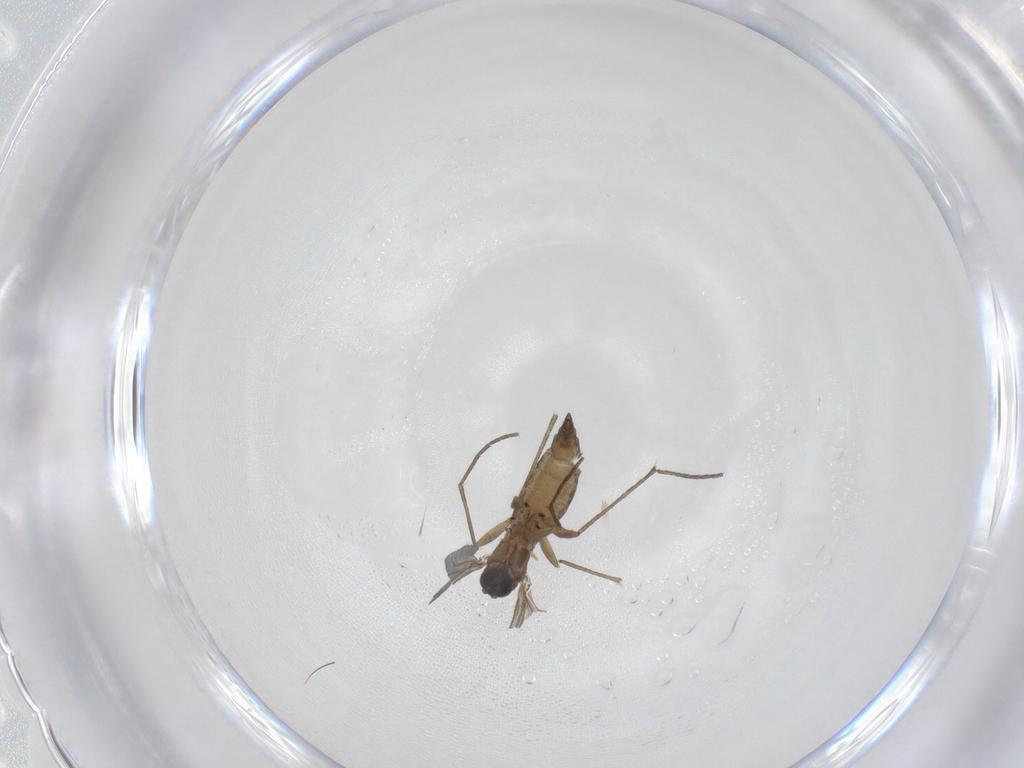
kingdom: Animalia
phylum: Arthropoda
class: Insecta
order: Diptera
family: Sciaridae
